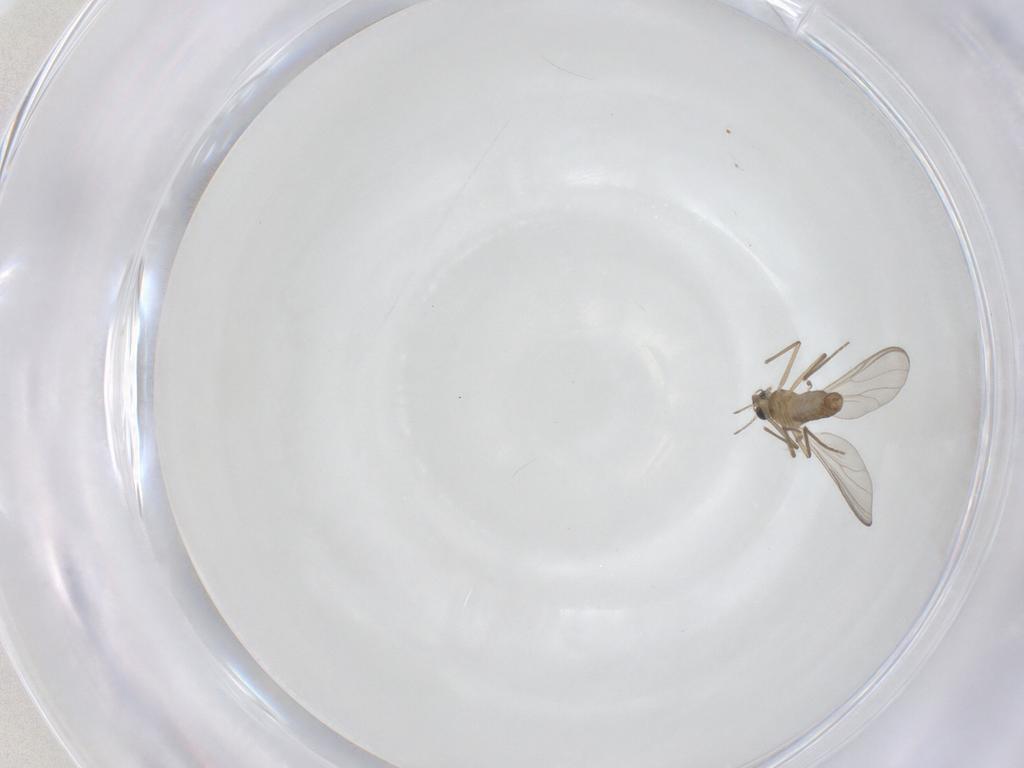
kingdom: Animalia
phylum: Arthropoda
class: Insecta
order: Diptera
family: Chironomidae
